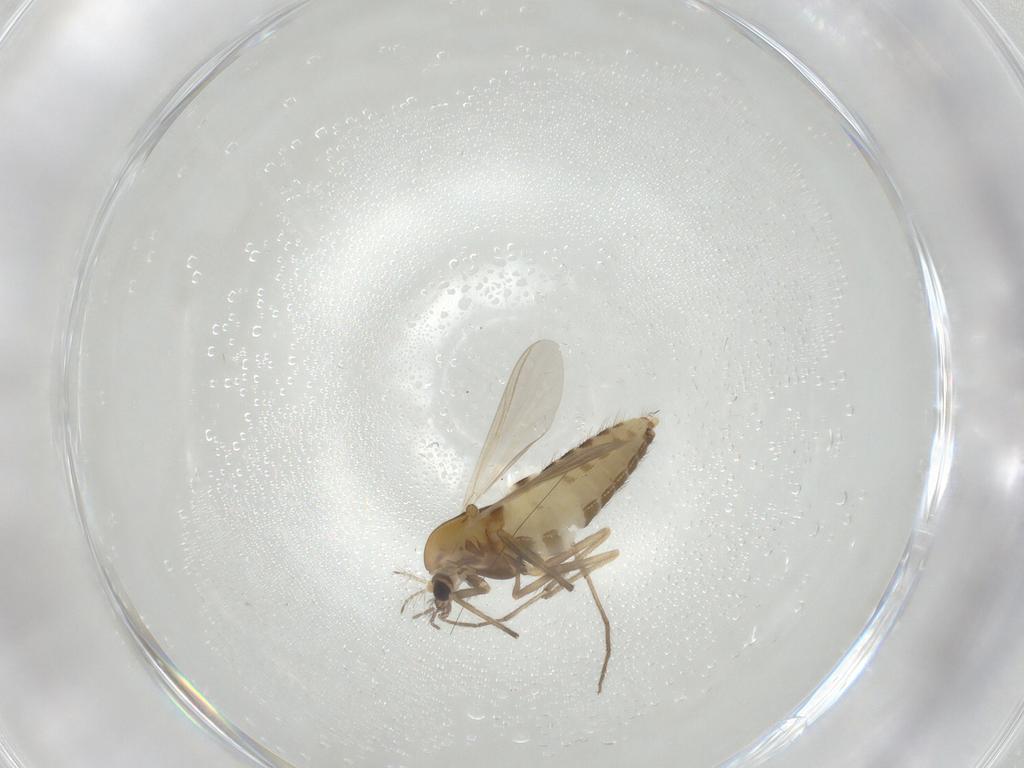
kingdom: Animalia
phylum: Arthropoda
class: Insecta
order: Diptera
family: Chironomidae
